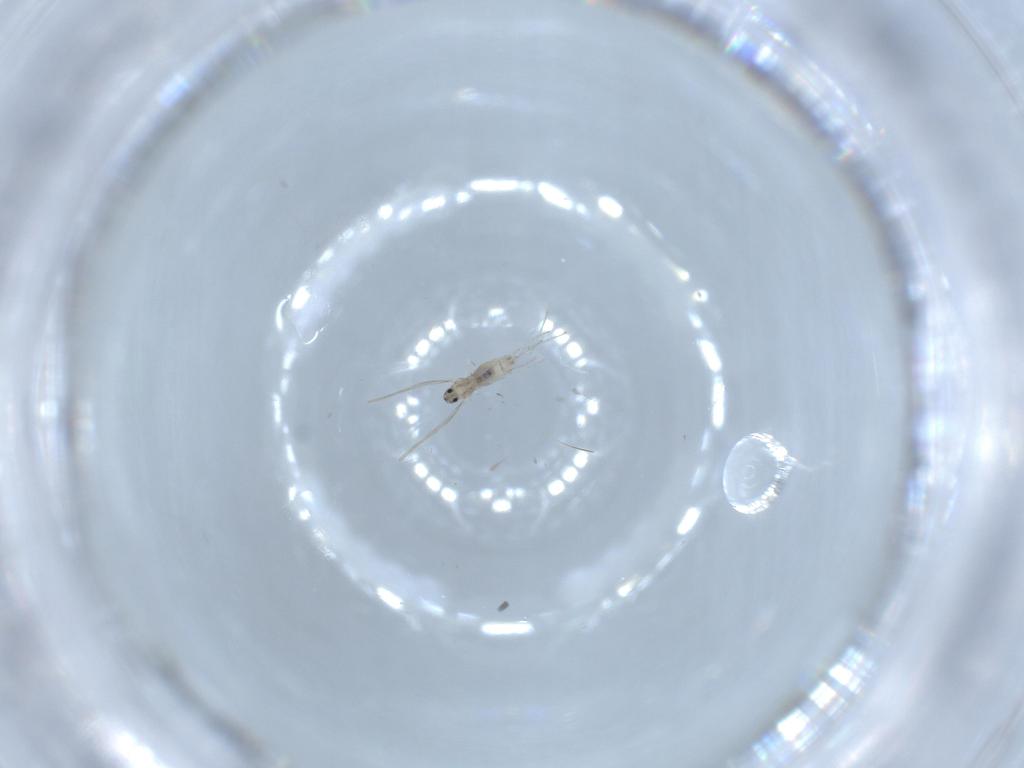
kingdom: Animalia
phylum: Arthropoda
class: Insecta
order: Diptera
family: Cecidomyiidae
